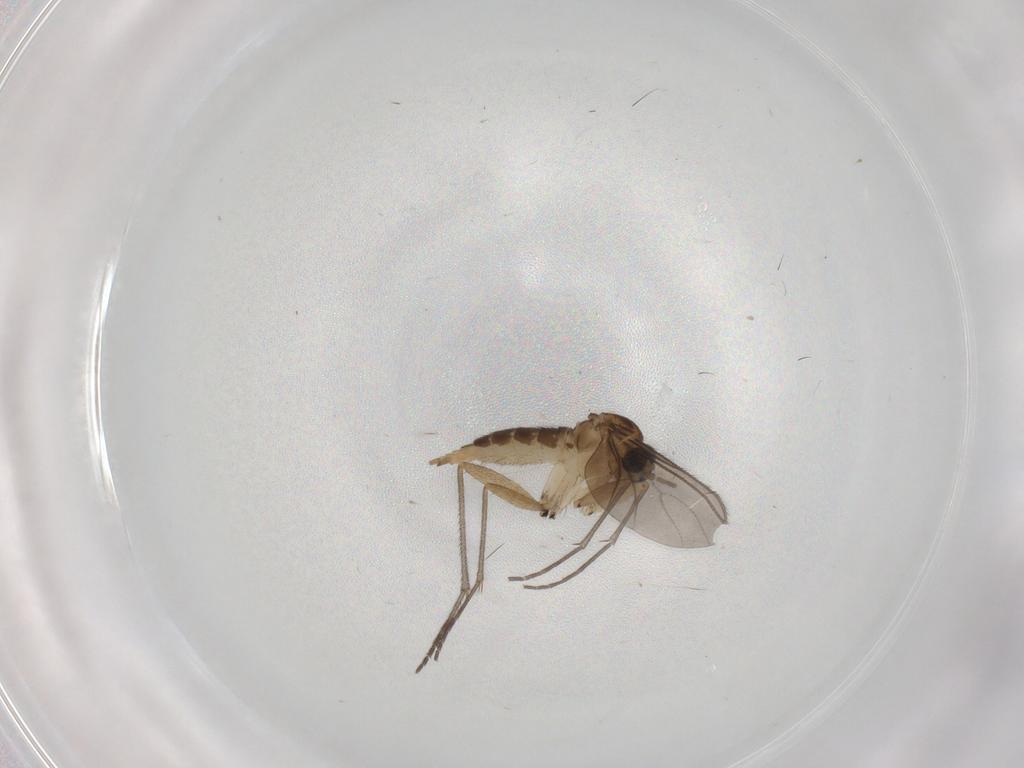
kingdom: Animalia
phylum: Arthropoda
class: Insecta
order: Diptera
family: Sciaridae
